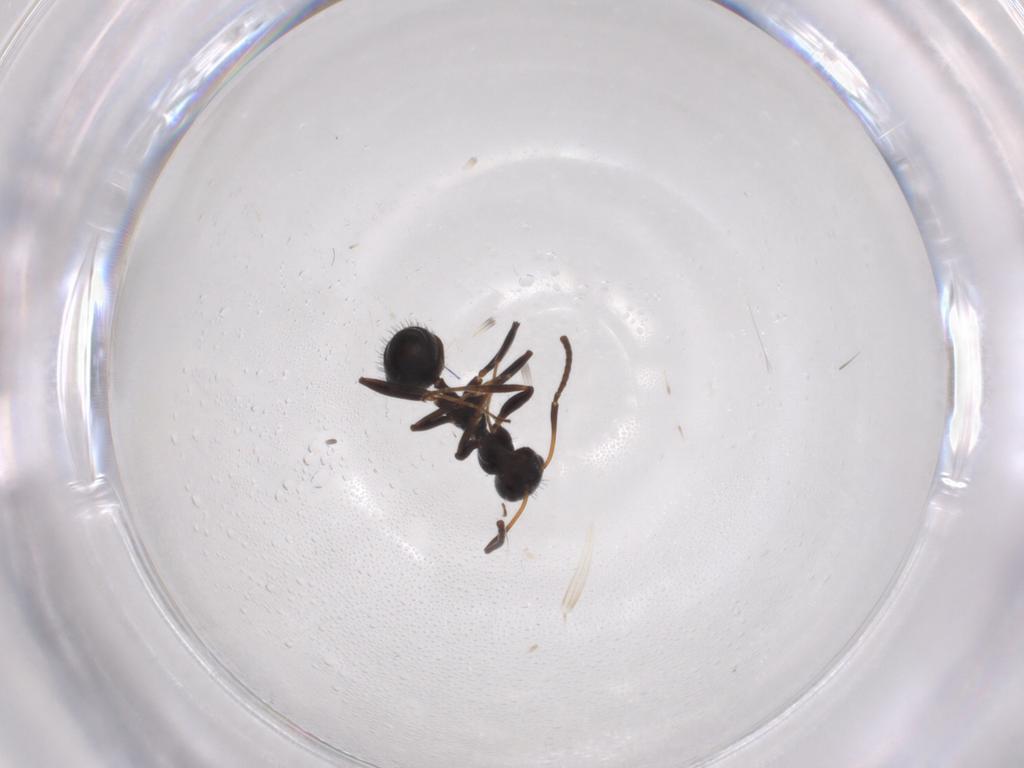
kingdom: Animalia
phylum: Arthropoda
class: Insecta
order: Hymenoptera
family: Formicidae
